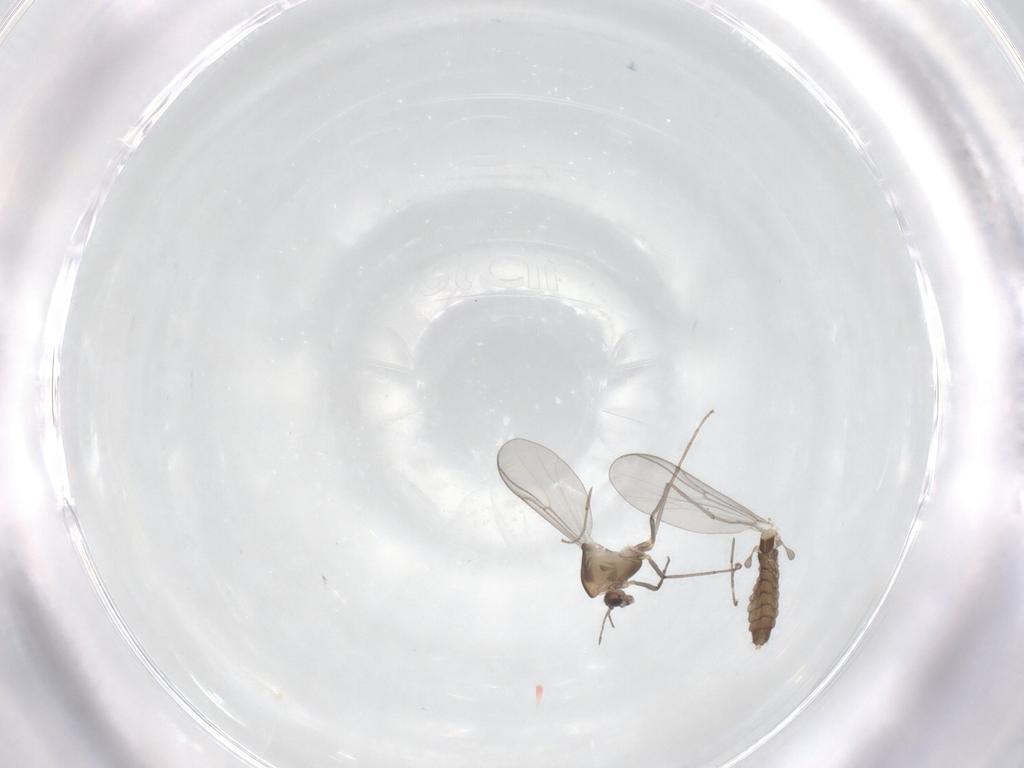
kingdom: Animalia
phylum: Arthropoda
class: Insecta
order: Diptera
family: Chironomidae
